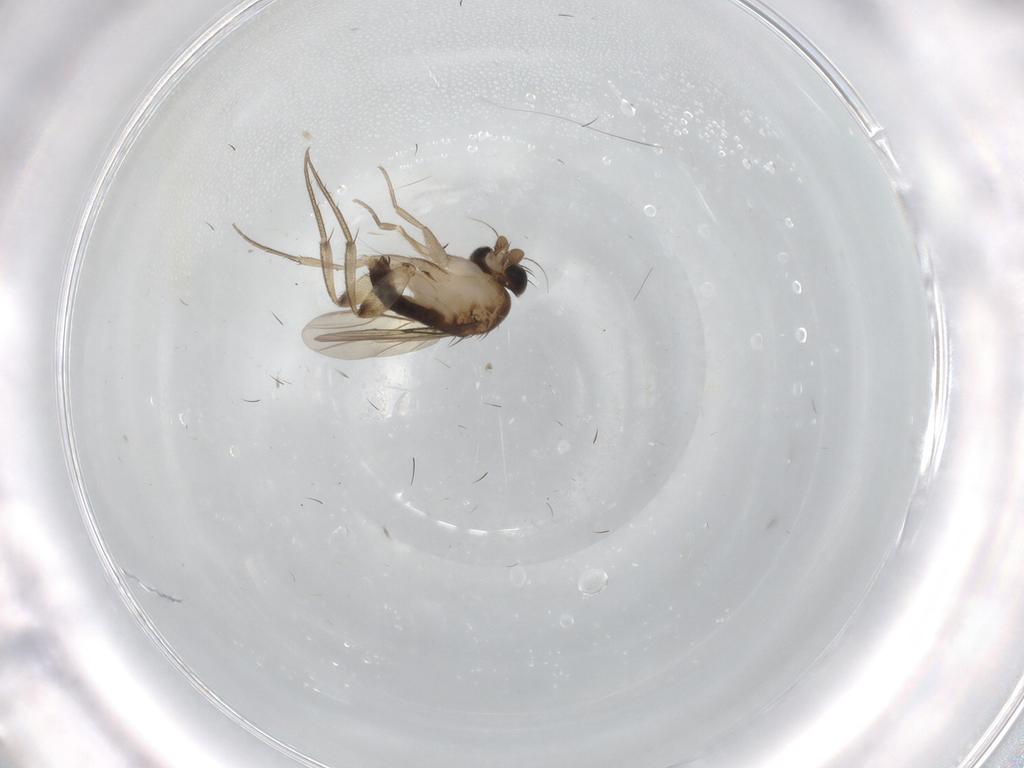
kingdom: Animalia
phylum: Arthropoda
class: Insecta
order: Diptera
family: Phoridae
